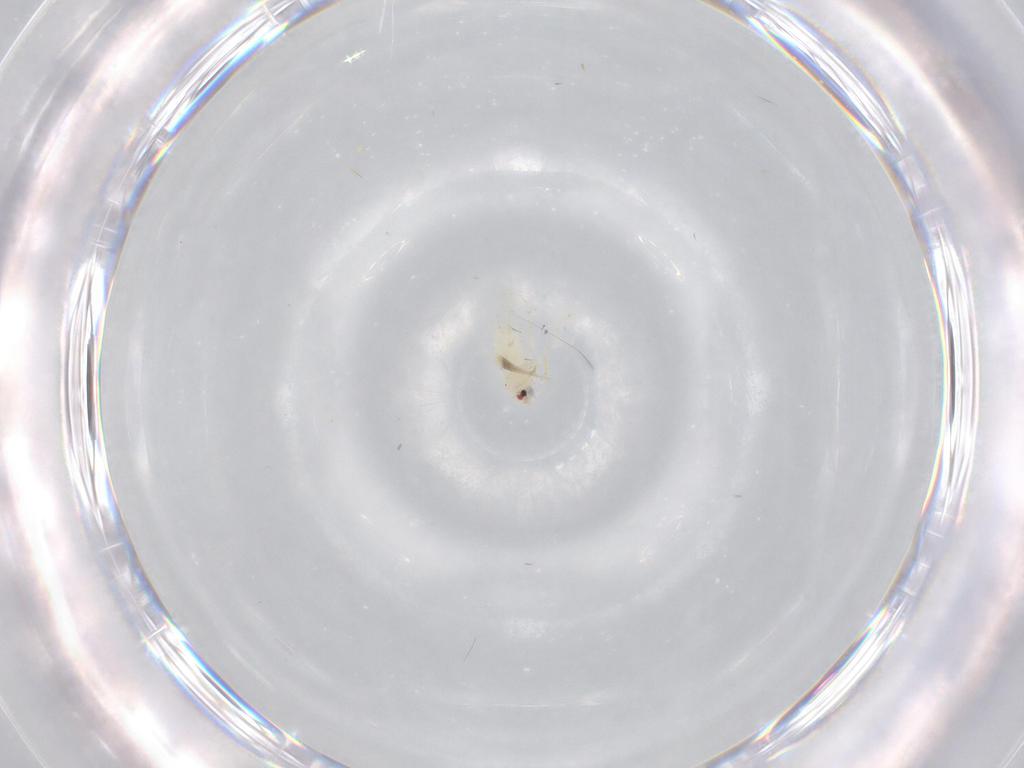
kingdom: Animalia
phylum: Arthropoda
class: Insecta
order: Hemiptera
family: Aleyrodidae
